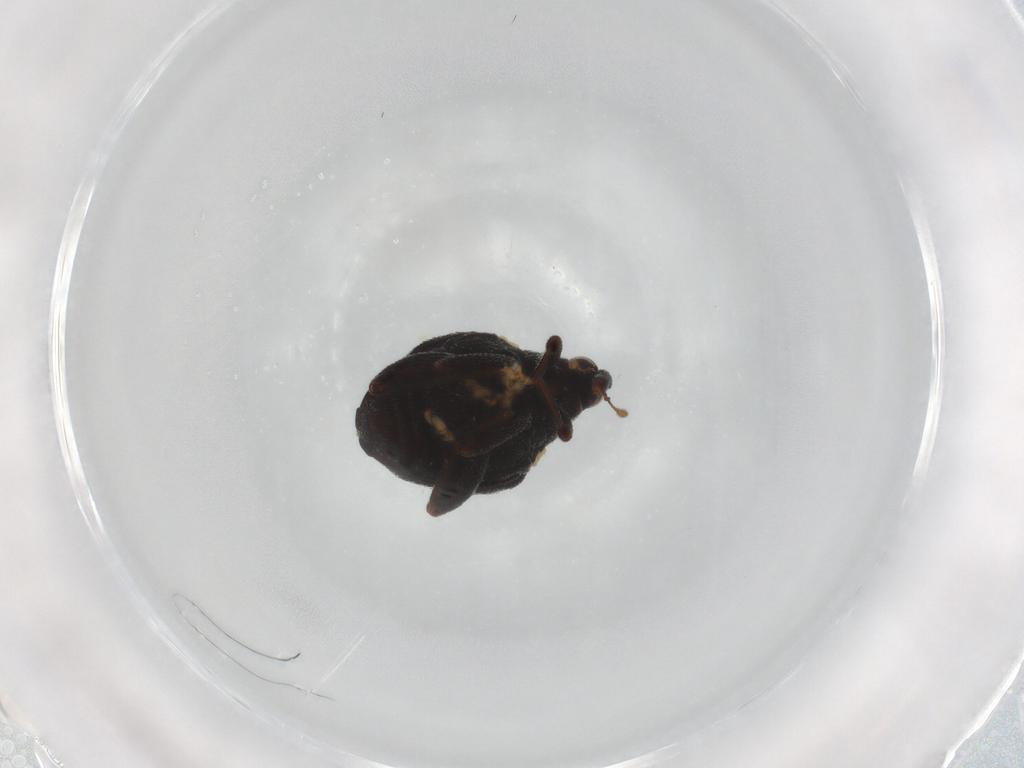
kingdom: Animalia
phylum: Arthropoda
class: Insecta
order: Coleoptera
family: Curculionidae
